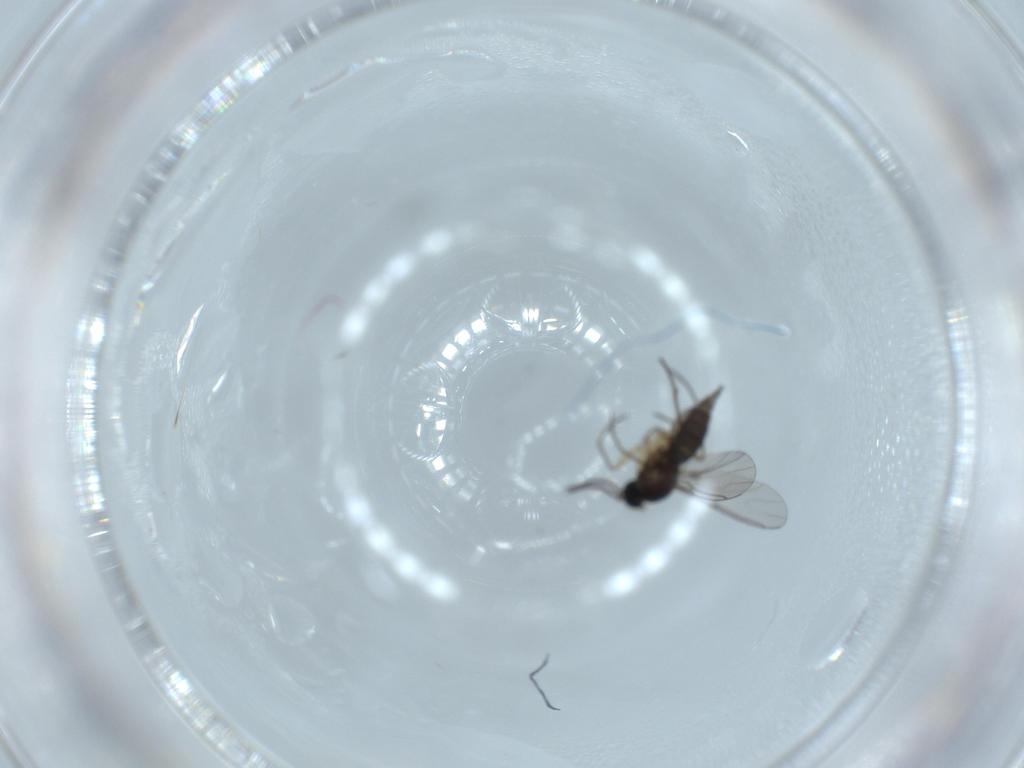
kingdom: Animalia
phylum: Arthropoda
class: Insecta
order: Diptera
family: Sciaridae
